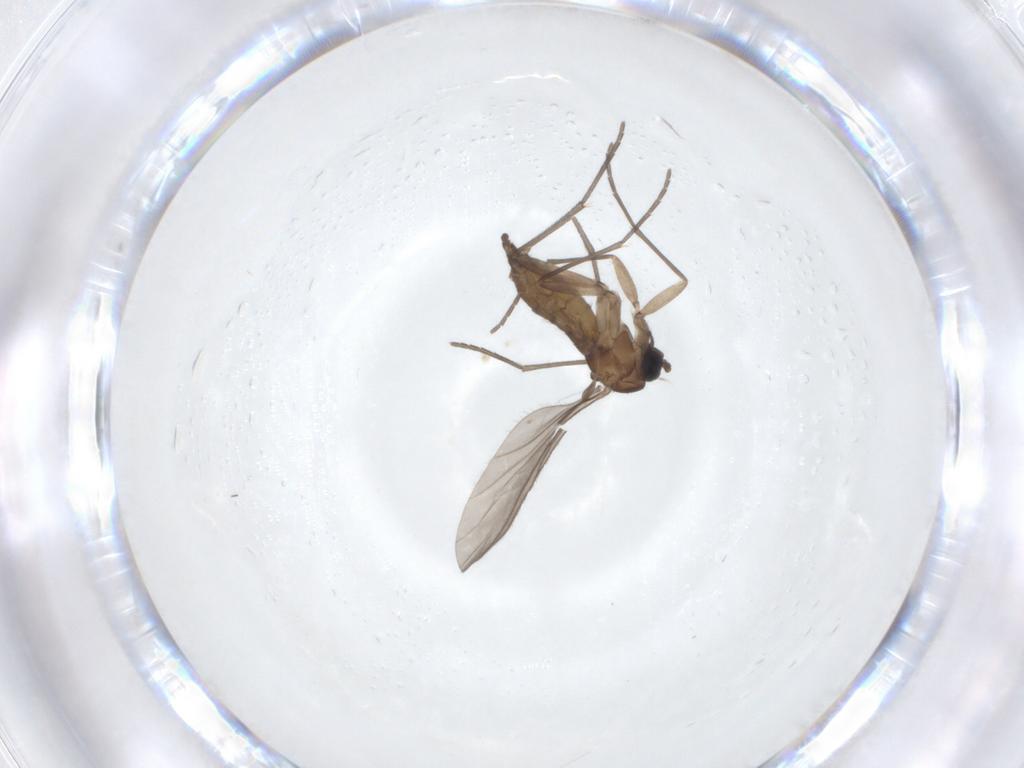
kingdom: Animalia
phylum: Arthropoda
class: Insecta
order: Diptera
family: Sciaridae
